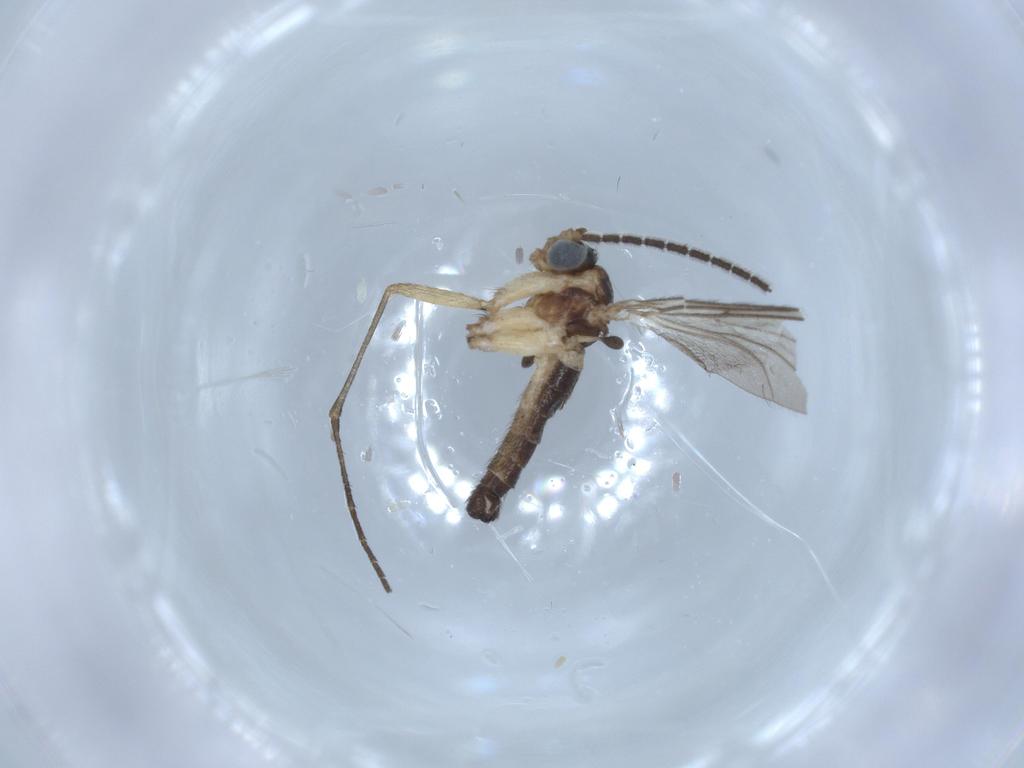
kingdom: Animalia
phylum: Arthropoda
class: Insecta
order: Diptera
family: Sciaridae
